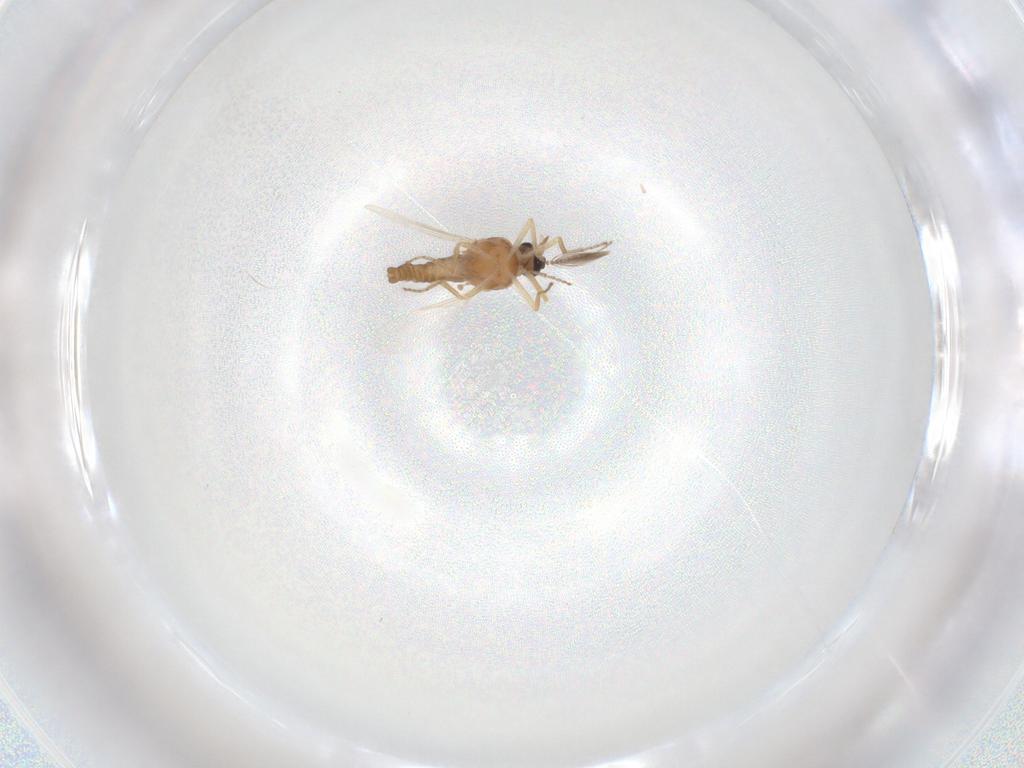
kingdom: Animalia
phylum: Arthropoda
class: Insecta
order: Diptera
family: Ceratopogonidae
